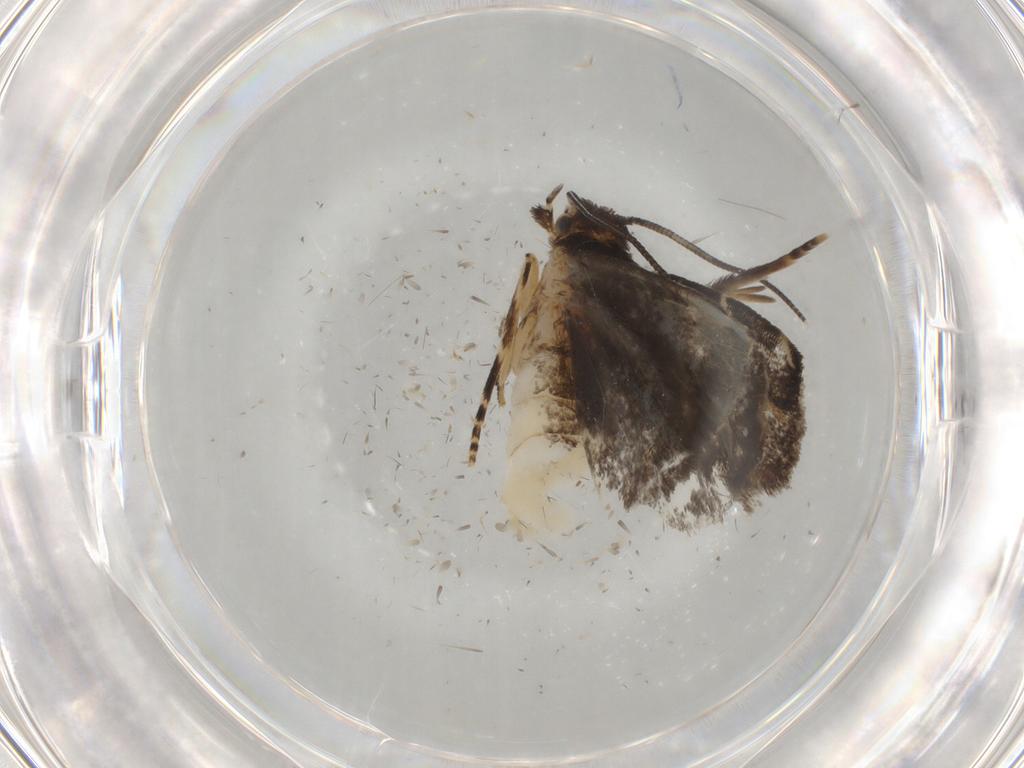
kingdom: Animalia
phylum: Arthropoda
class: Insecta
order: Lepidoptera
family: Dryadaulidae
